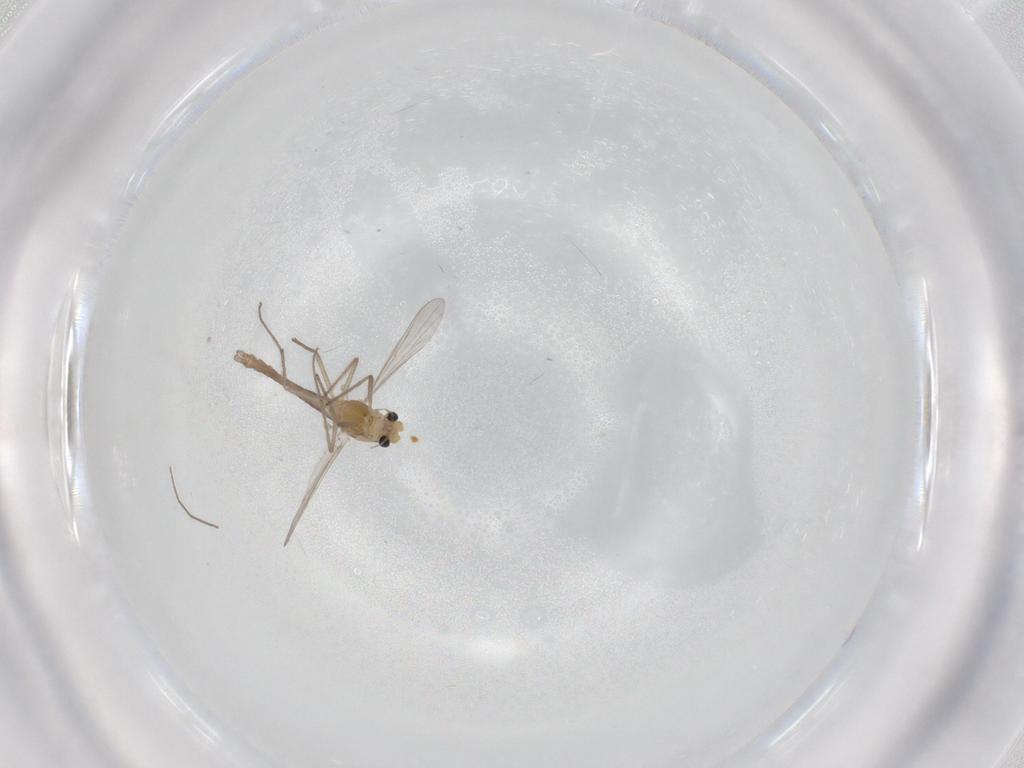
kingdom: Animalia
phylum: Arthropoda
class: Insecta
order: Diptera
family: Chironomidae
